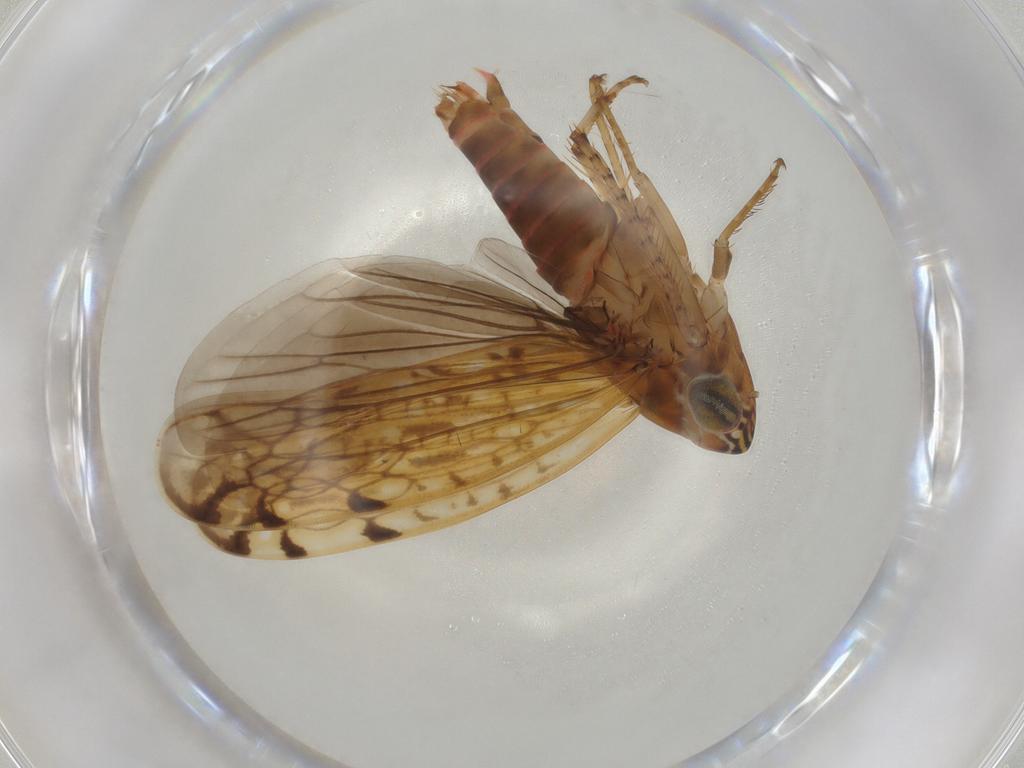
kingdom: Animalia
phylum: Arthropoda
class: Insecta
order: Hemiptera
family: Cicadellidae
